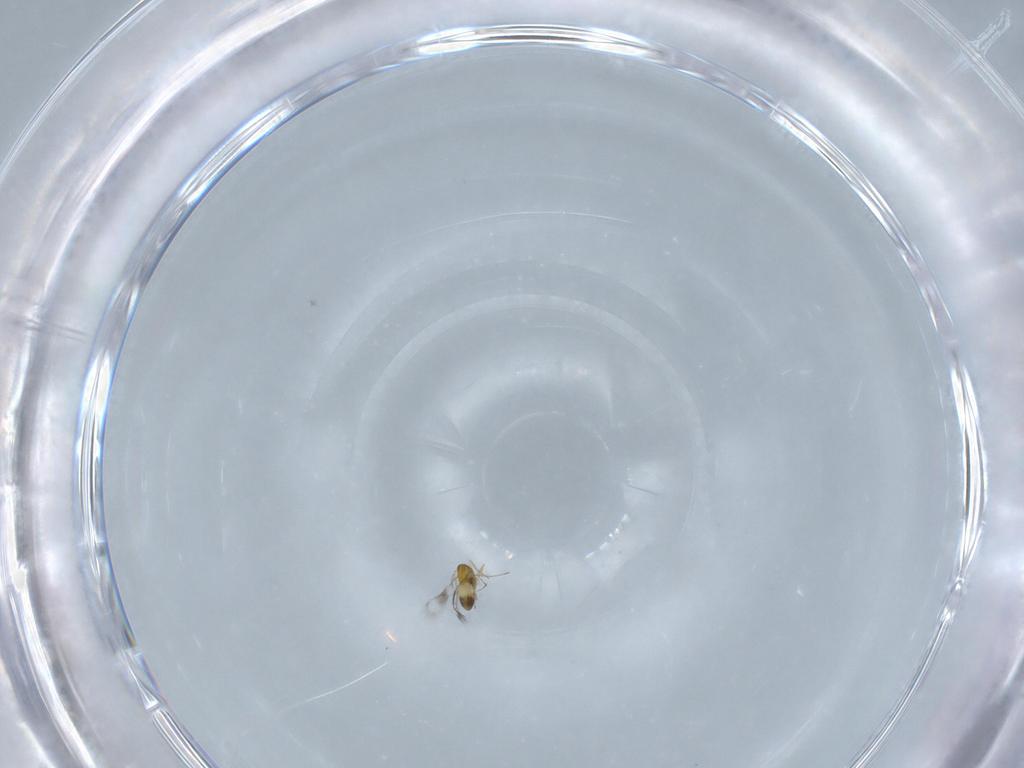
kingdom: Animalia
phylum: Arthropoda
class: Insecta
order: Hymenoptera
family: Trichogrammatidae
